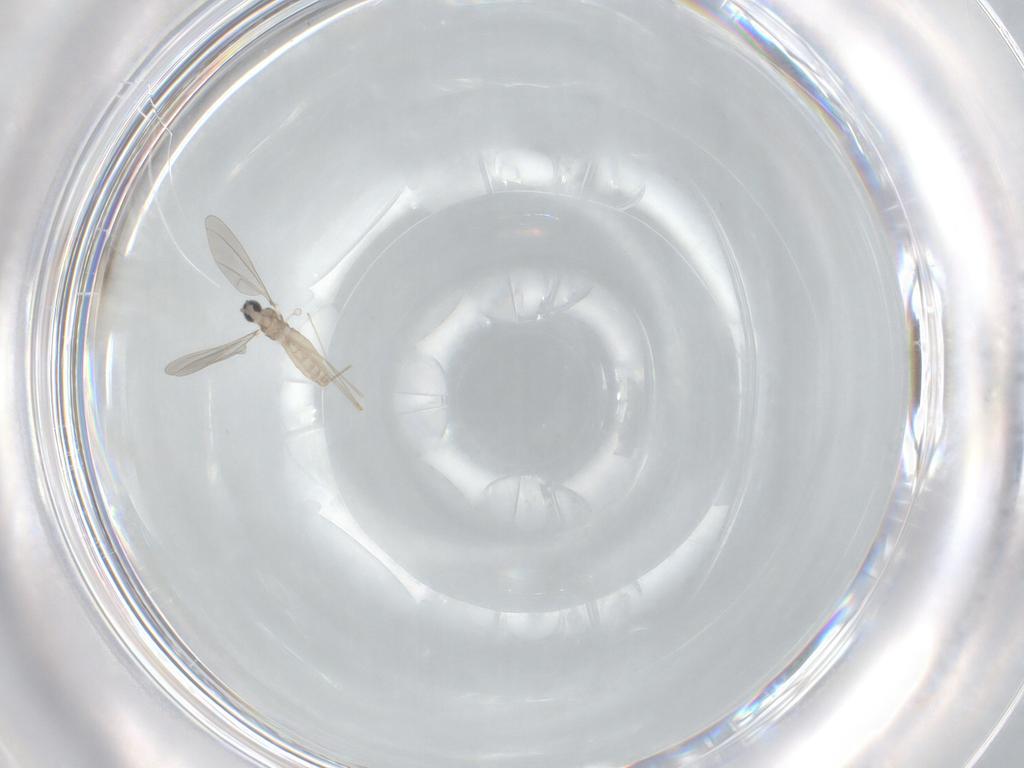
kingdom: Animalia
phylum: Arthropoda
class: Insecta
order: Diptera
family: Cecidomyiidae
